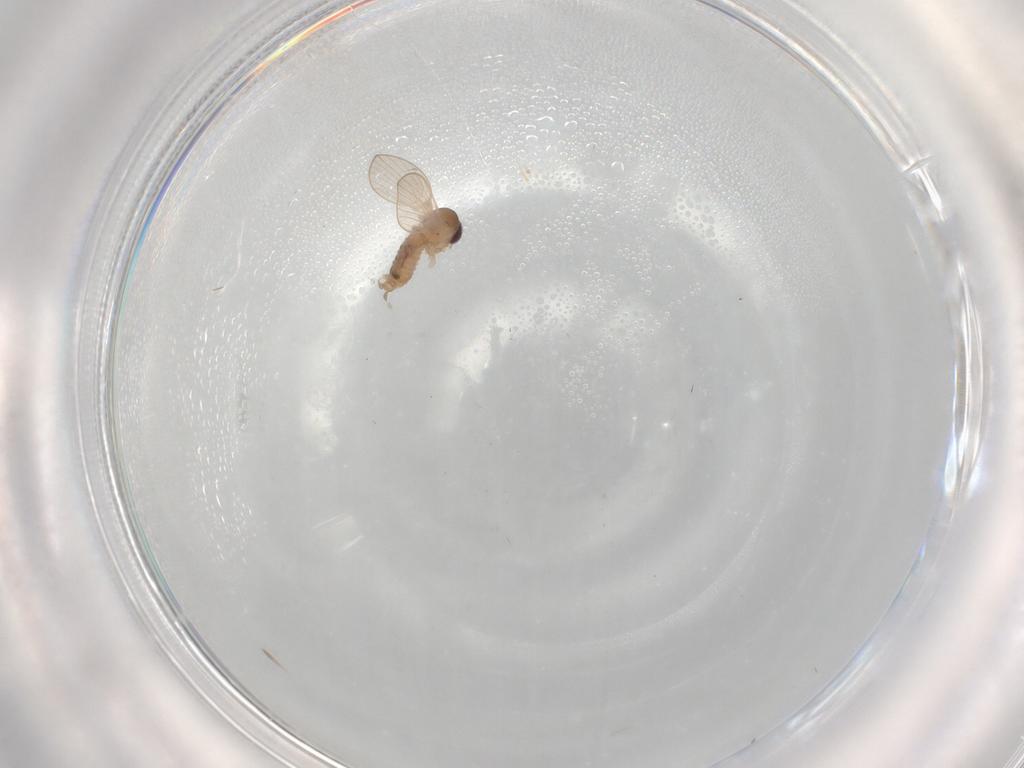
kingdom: Animalia
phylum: Arthropoda
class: Insecta
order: Diptera
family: Psychodidae
